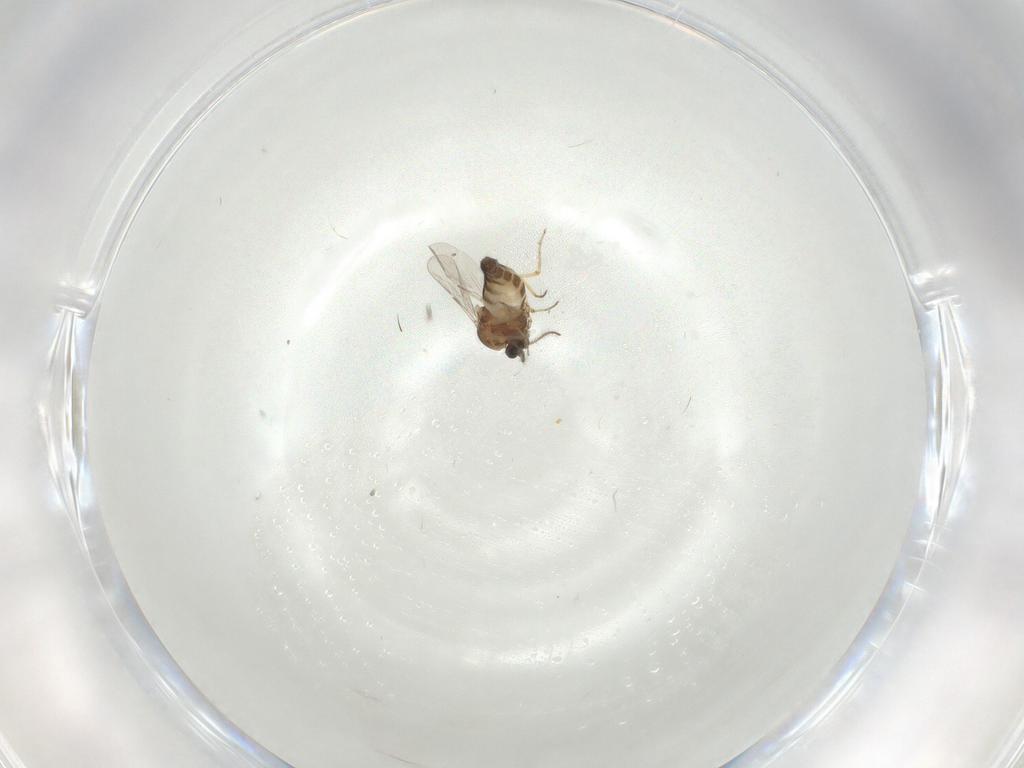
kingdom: Animalia
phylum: Arthropoda
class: Insecta
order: Diptera
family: Ceratopogonidae
